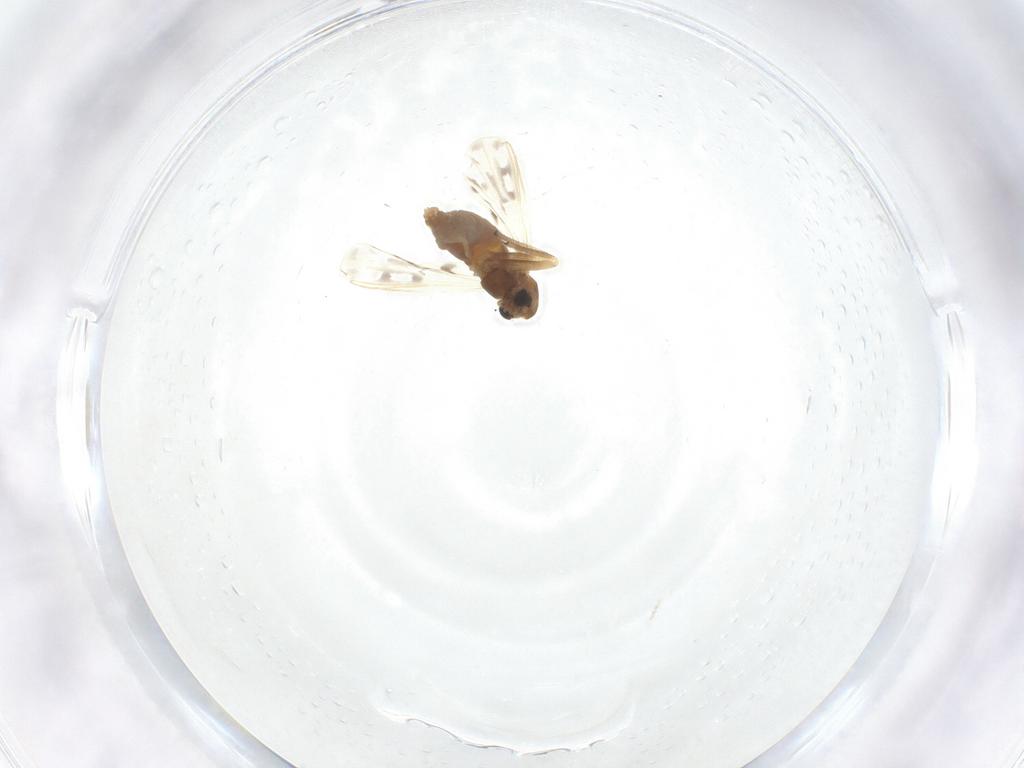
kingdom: Animalia
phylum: Arthropoda
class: Insecta
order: Diptera
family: Chironomidae
